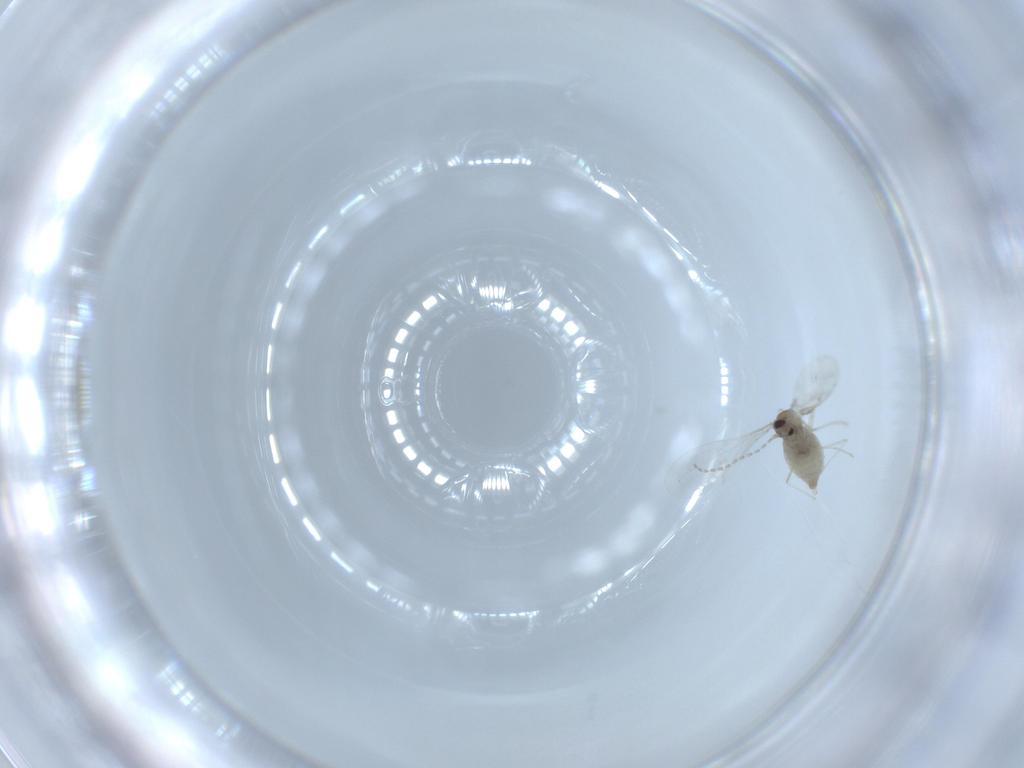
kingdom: Animalia
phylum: Arthropoda
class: Insecta
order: Diptera
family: Cecidomyiidae
